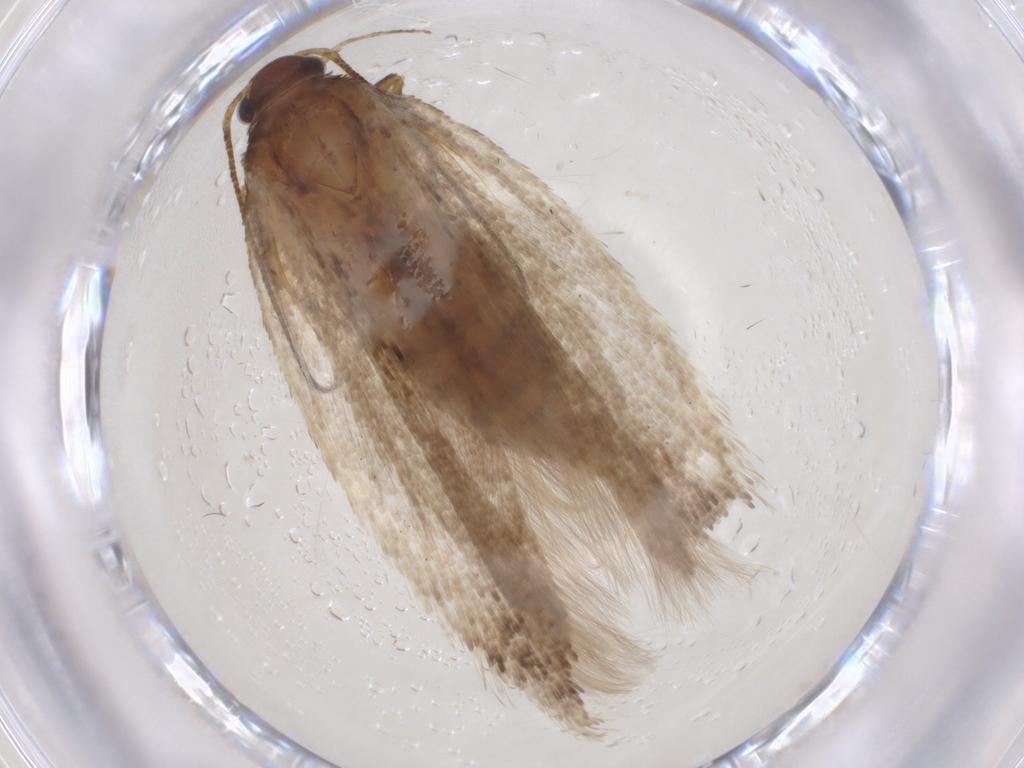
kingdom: Animalia
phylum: Arthropoda
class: Insecta
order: Lepidoptera
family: Gelechiidae
